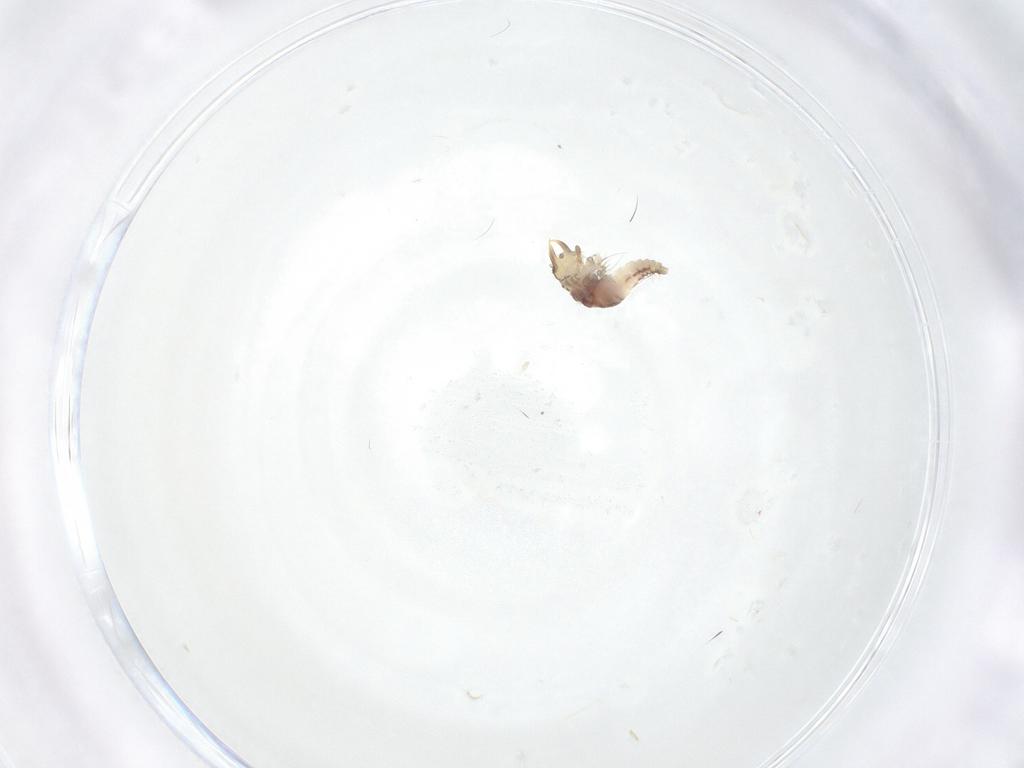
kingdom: Animalia
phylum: Arthropoda
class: Insecta
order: Neuroptera
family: Hemerobiidae
